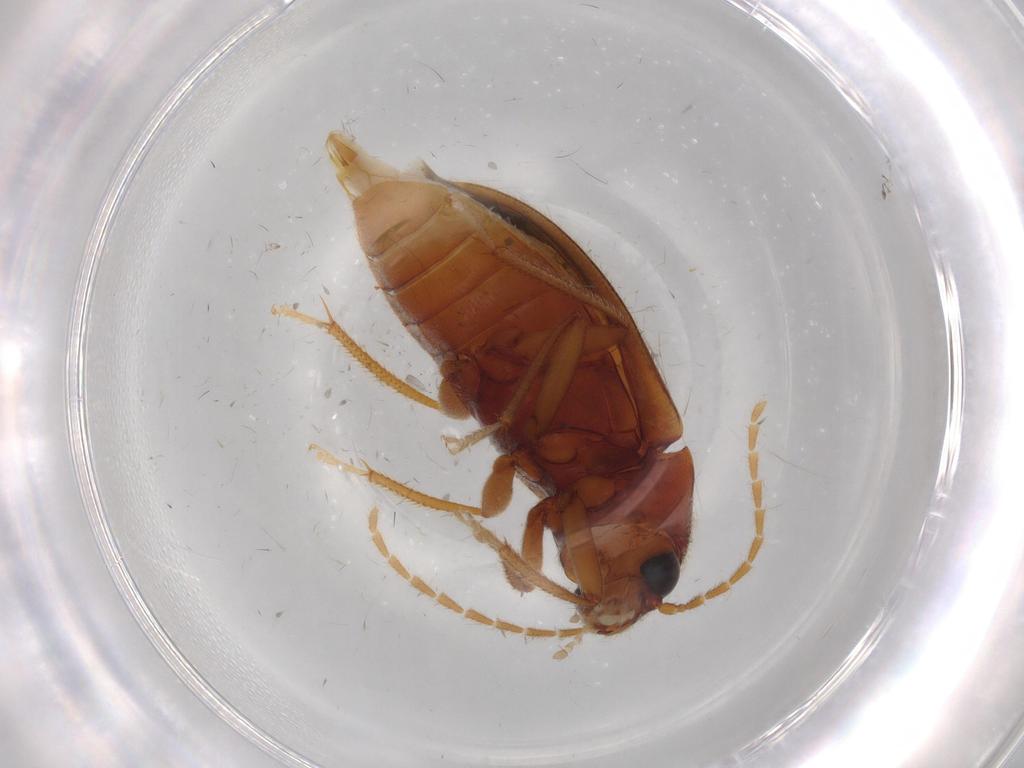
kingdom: Animalia
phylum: Arthropoda
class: Insecta
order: Coleoptera
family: Ptilodactylidae
